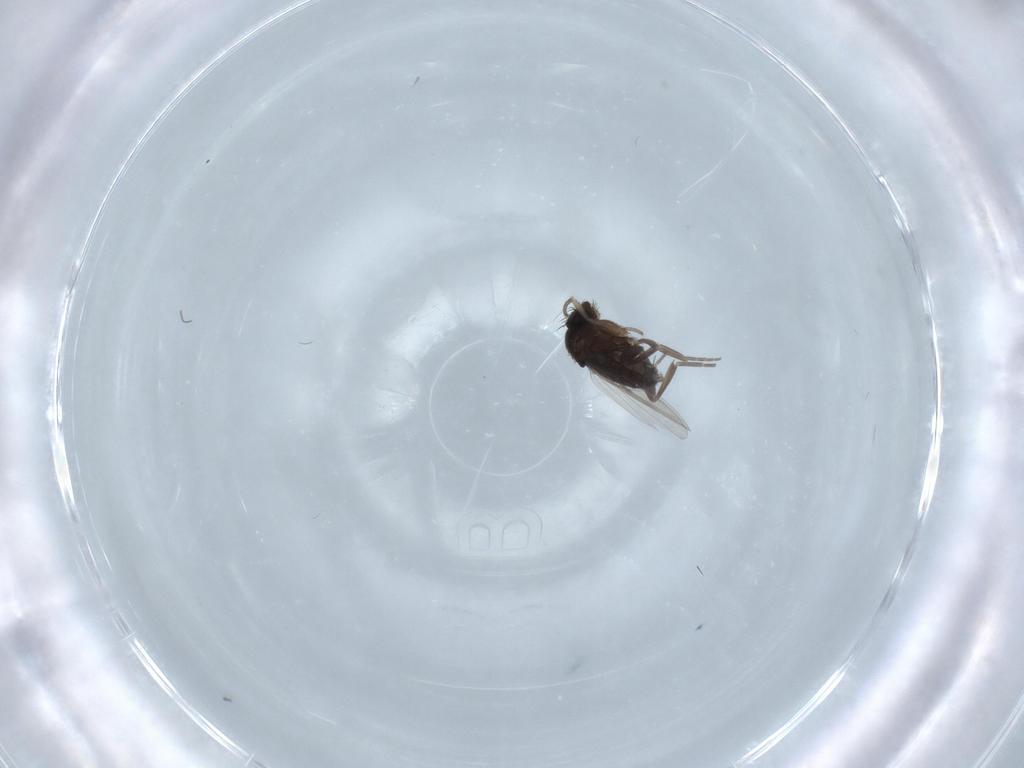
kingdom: Animalia
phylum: Arthropoda
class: Insecta
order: Diptera
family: Phoridae
